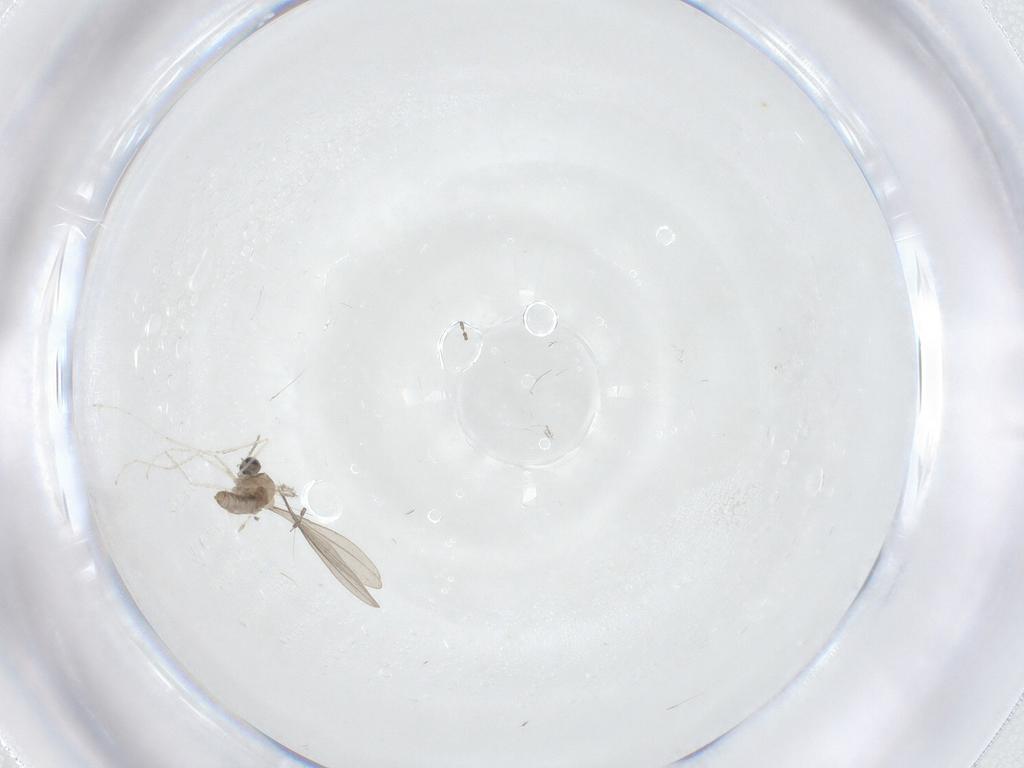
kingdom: Animalia
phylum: Arthropoda
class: Insecta
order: Diptera
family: Cecidomyiidae
